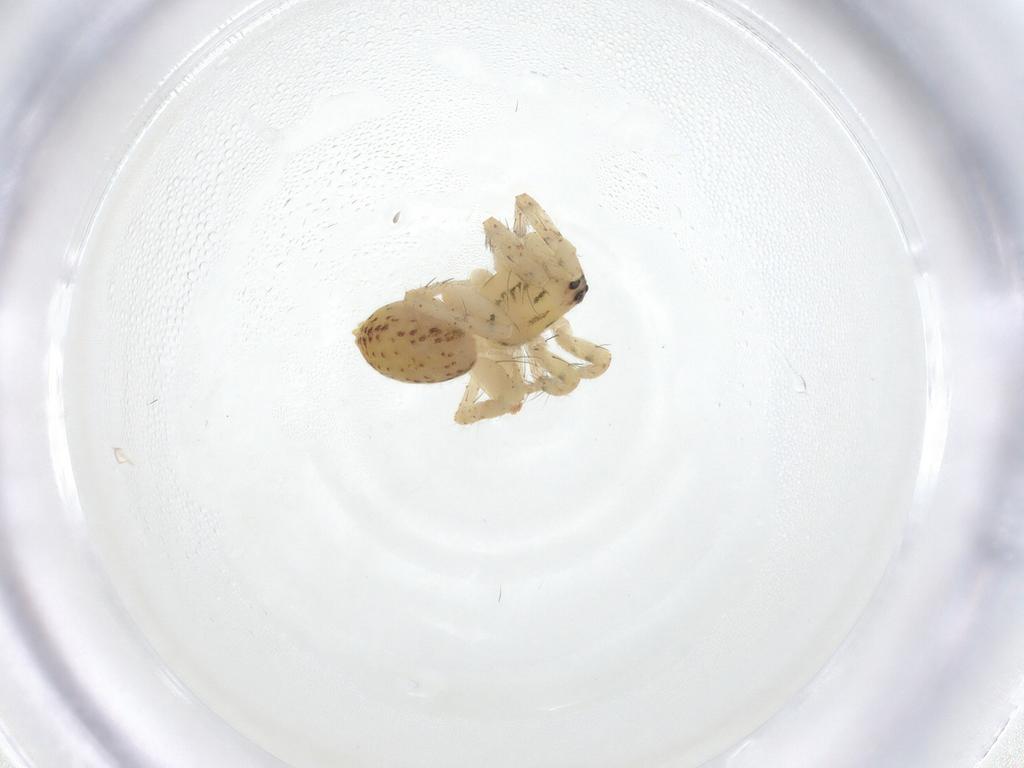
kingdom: Animalia
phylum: Arthropoda
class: Arachnida
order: Araneae
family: Anyphaenidae
